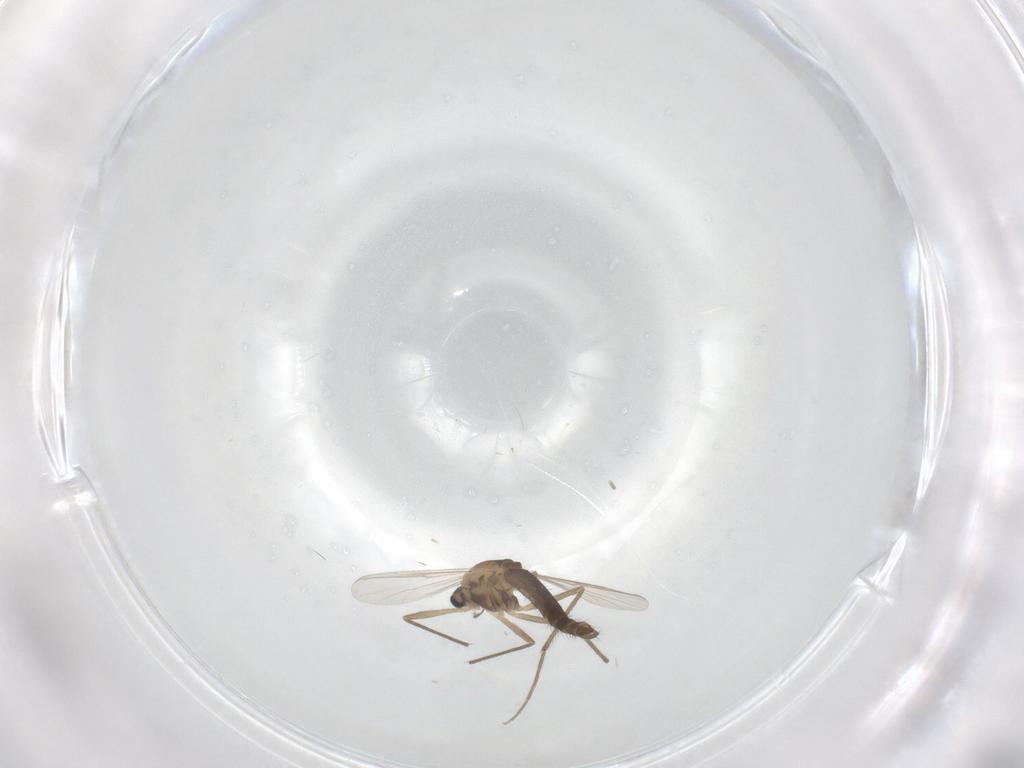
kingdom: Animalia
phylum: Arthropoda
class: Insecta
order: Diptera
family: Chironomidae
